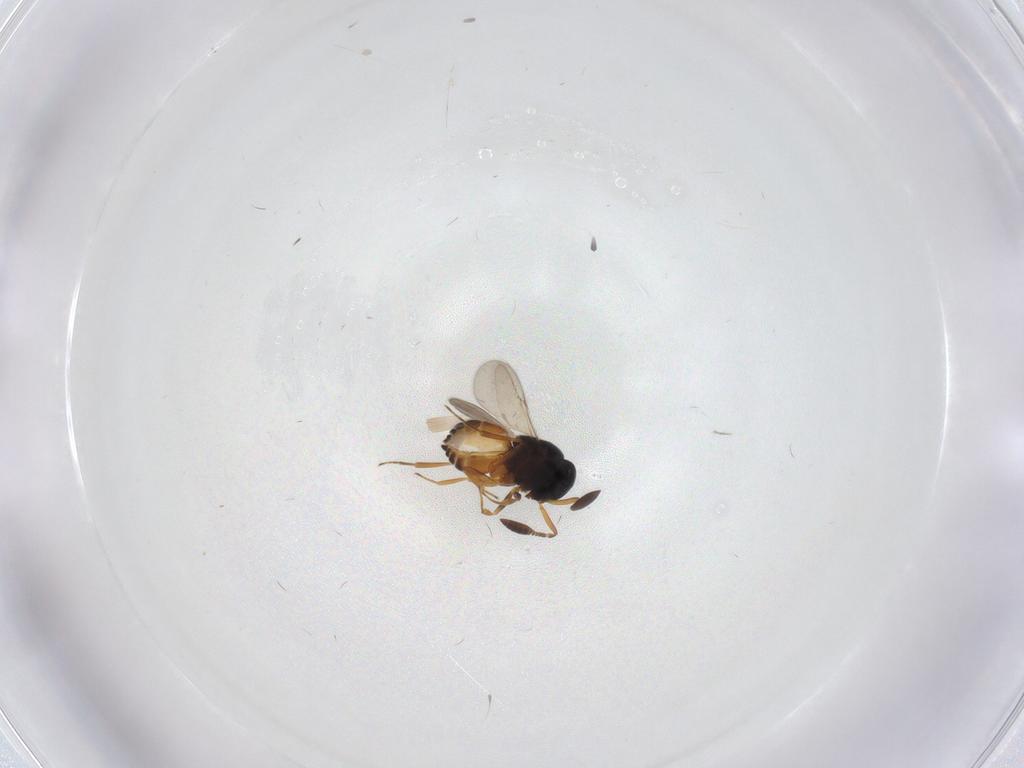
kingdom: Animalia
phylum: Arthropoda
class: Insecta
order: Hymenoptera
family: Scelionidae
